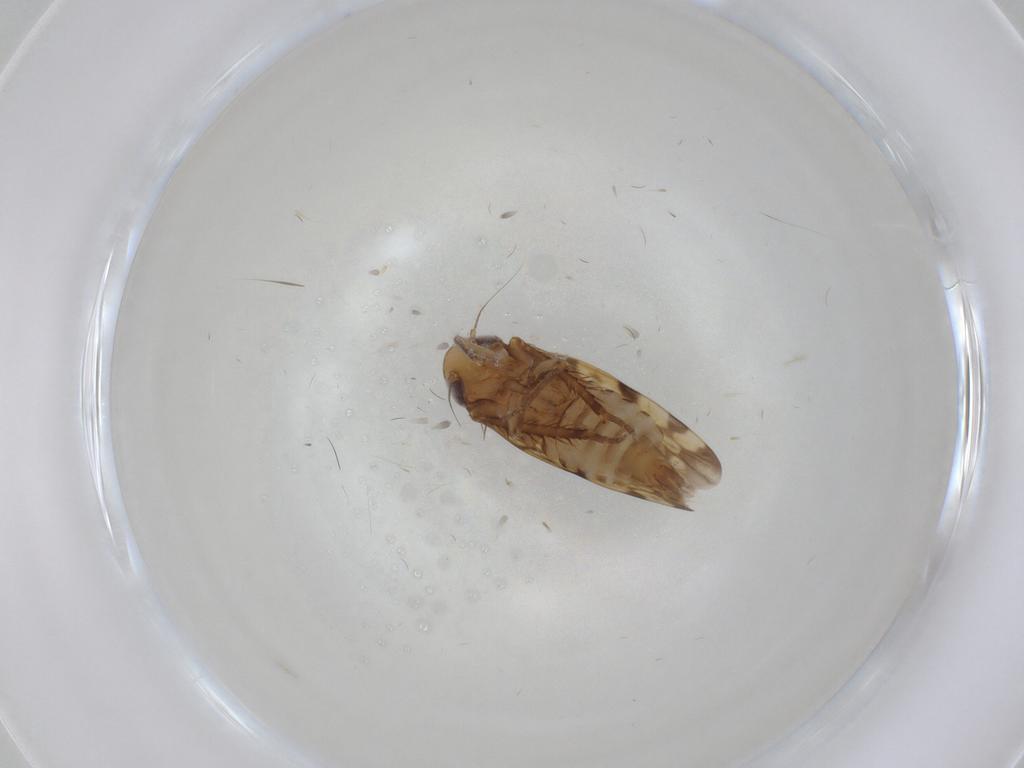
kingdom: Animalia
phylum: Arthropoda
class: Insecta
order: Hemiptera
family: Cicadellidae
